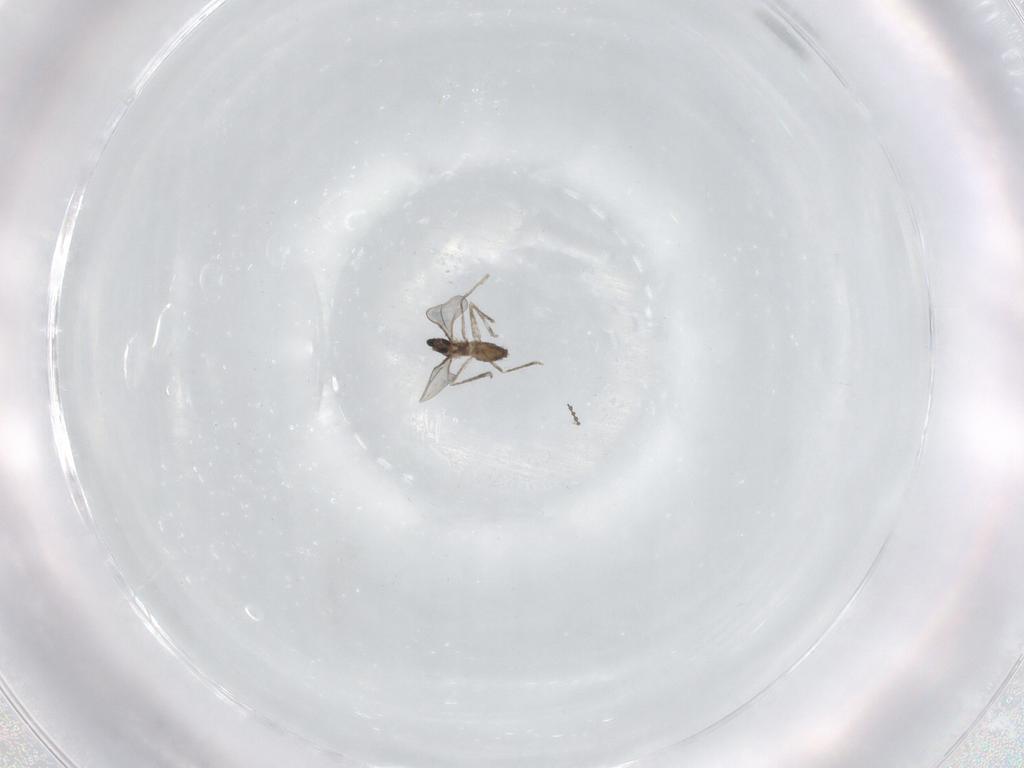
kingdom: Animalia
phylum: Arthropoda
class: Insecta
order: Diptera
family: Cecidomyiidae
